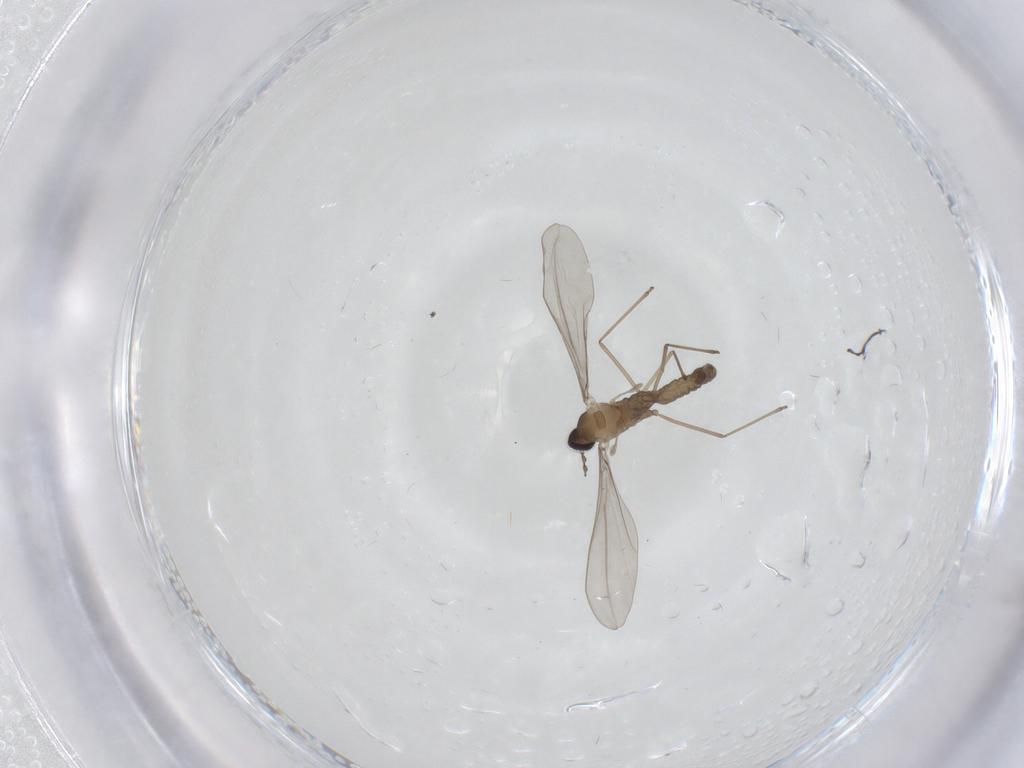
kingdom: Animalia
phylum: Arthropoda
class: Insecta
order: Diptera
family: Cecidomyiidae
